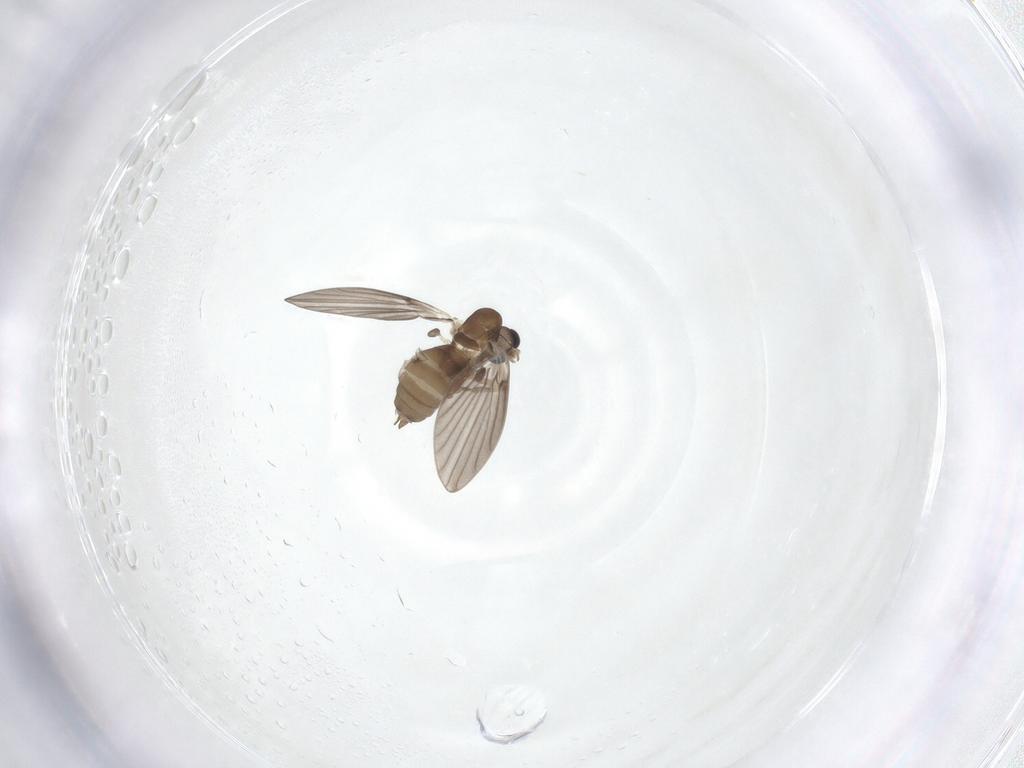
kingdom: Animalia
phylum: Arthropoda
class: Insecta
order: Diptera
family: Psychodidae
